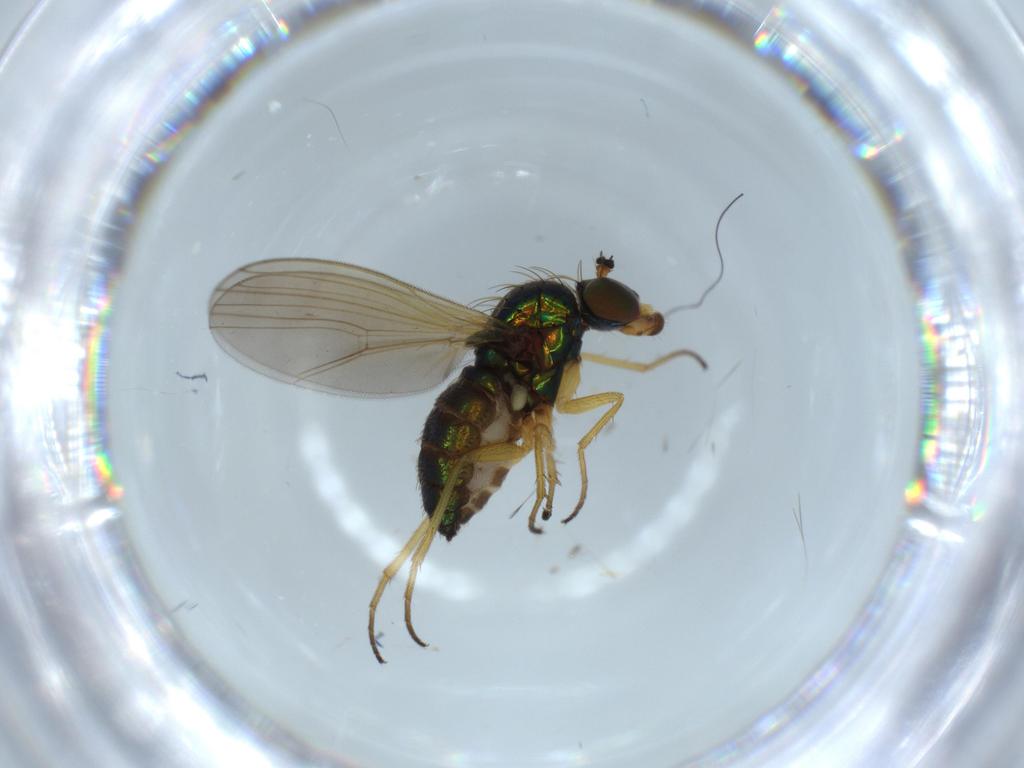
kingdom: Animalia
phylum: Arthropoda
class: Insecta
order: Diptera
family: Dolichopodidae
